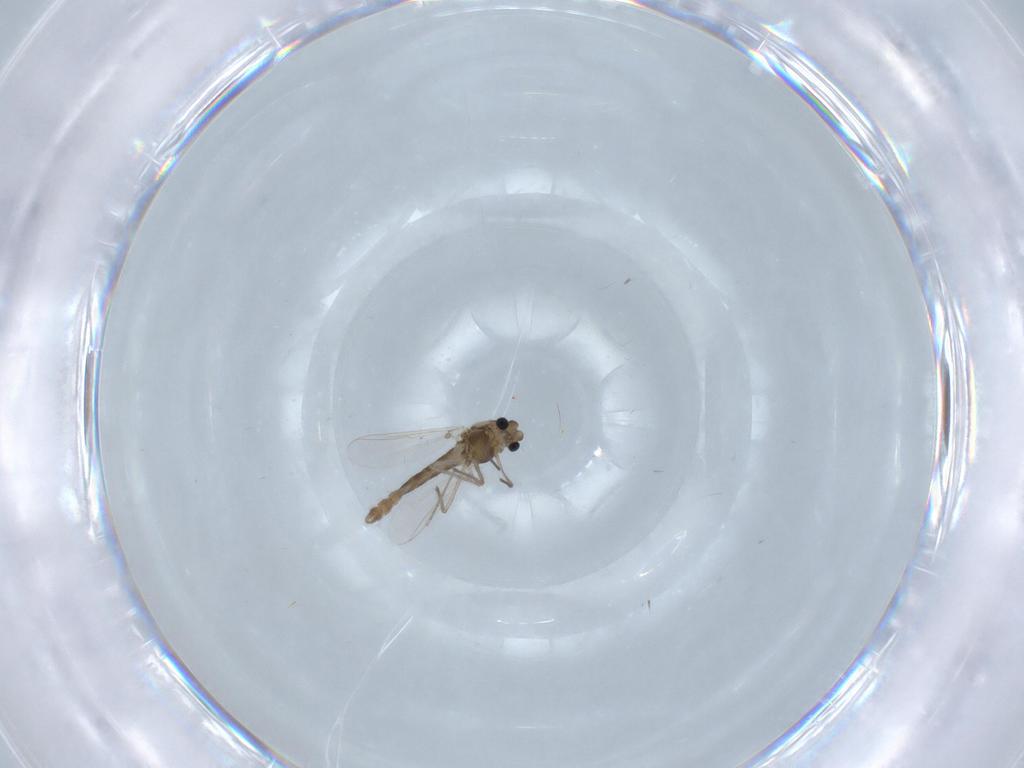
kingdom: Animalia
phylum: Arthropoda
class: Insecta
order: Diptera
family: Chironomidae
